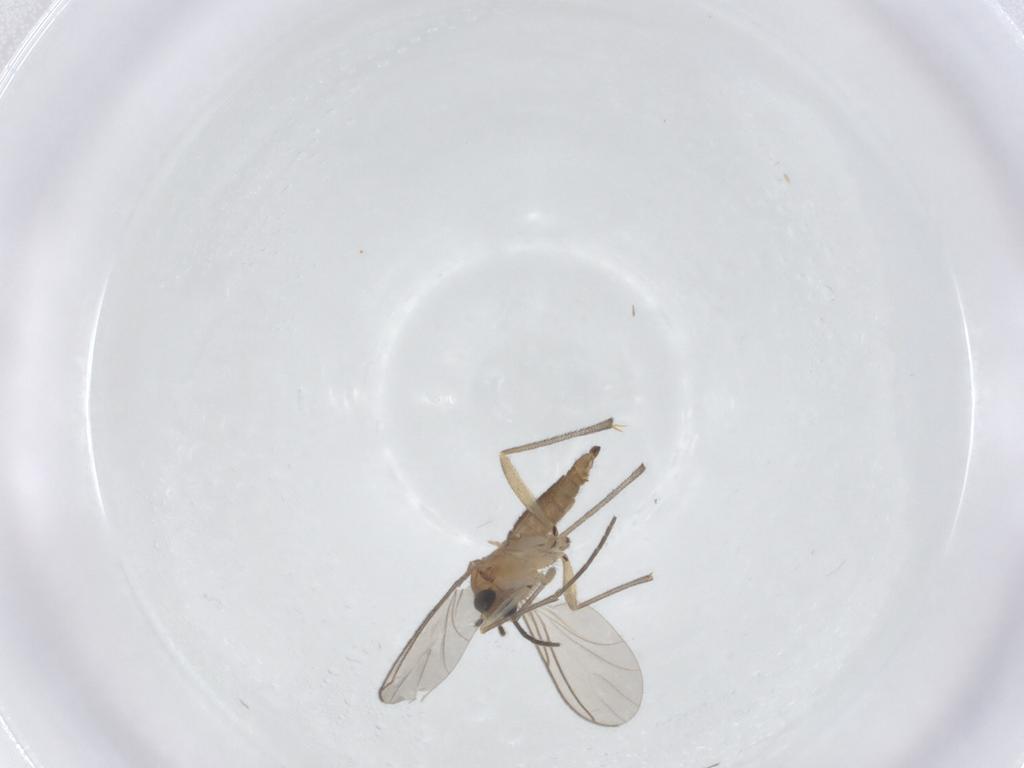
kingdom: Animalia
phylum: Arthropoda
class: Insecta
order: Diptera
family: Sciaridae
